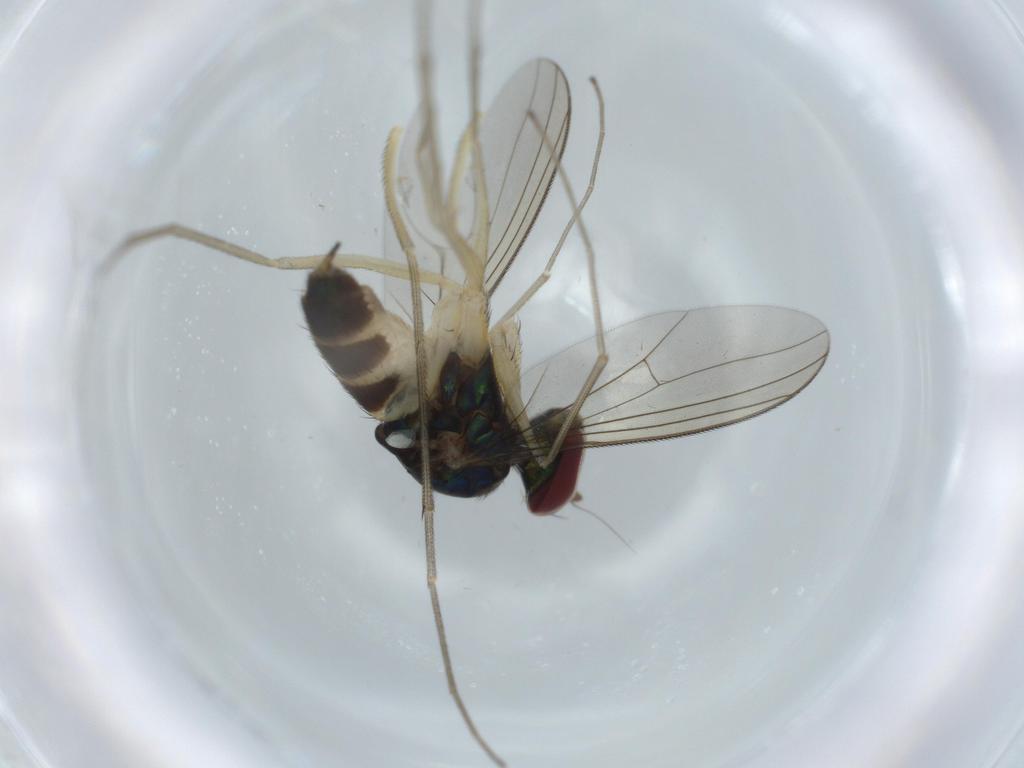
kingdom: Animalia
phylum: Arthropoda
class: Insecta
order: Diptera
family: Dolichopodidae
